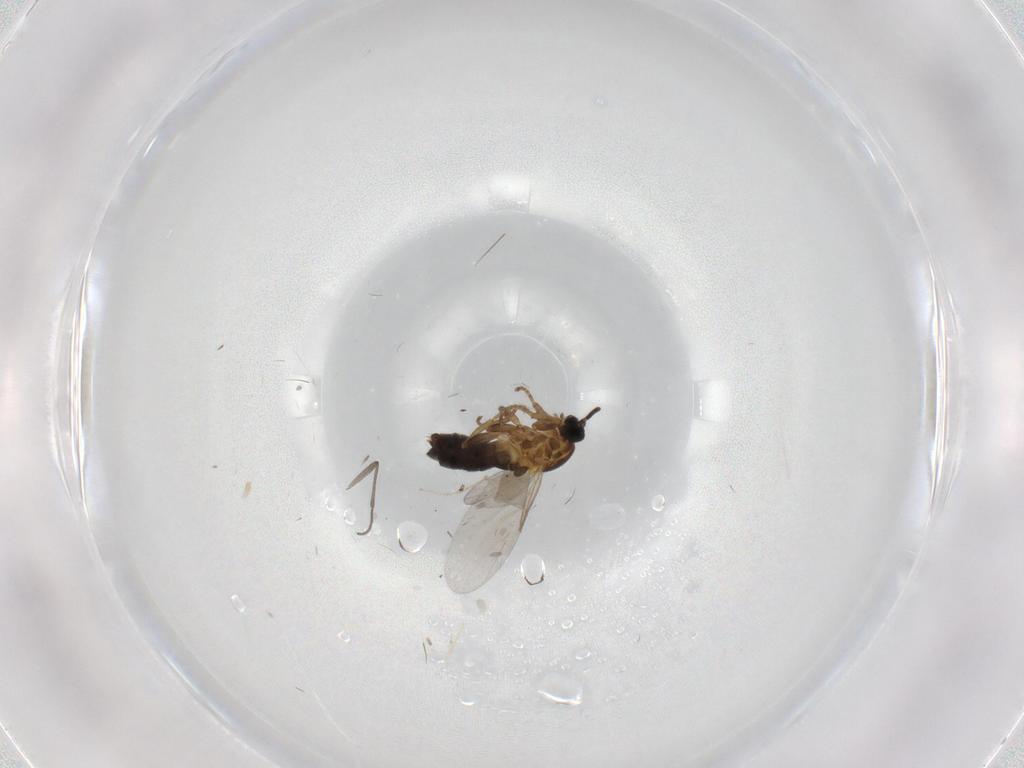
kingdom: Animalia
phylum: Arthropoda
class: Insecta
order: Diptera
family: Scatopsidae
